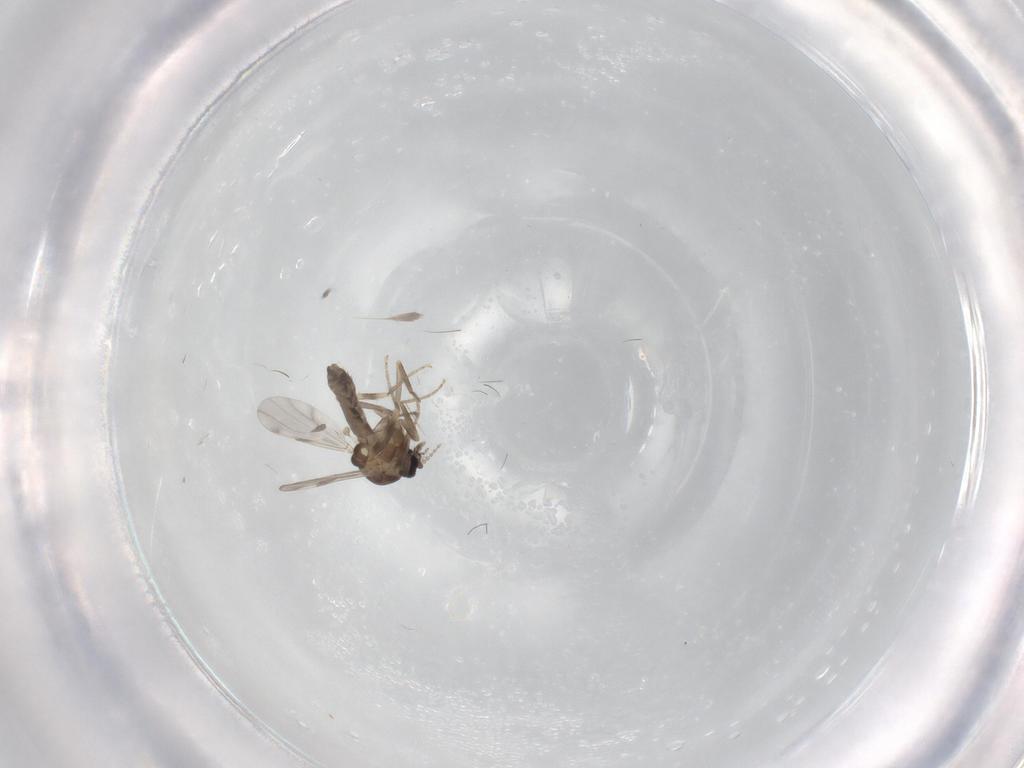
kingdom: Animalia
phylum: Arthropoda
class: Insecta
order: Diptera
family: Ceratopogonidae
